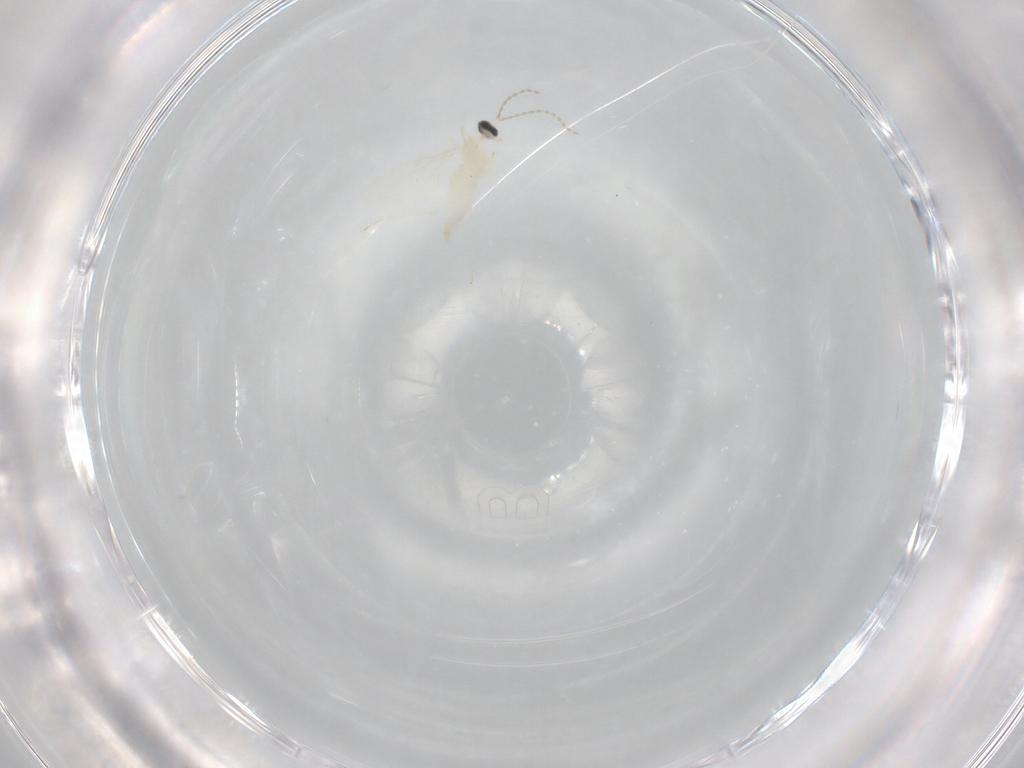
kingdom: Animalia
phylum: Arthropoda
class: Insecta
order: Diptera
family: Cecidomyiidae
